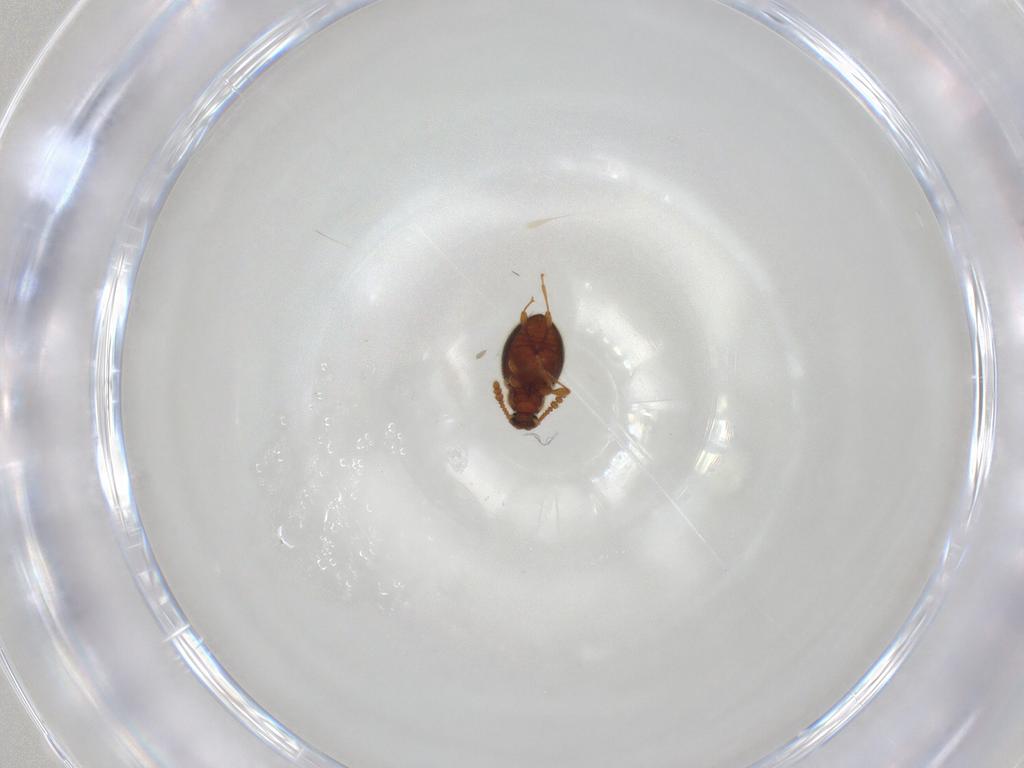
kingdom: Animalia
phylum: Arthropoda
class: Insecta
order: Coleoptera
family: Staphylinidae
